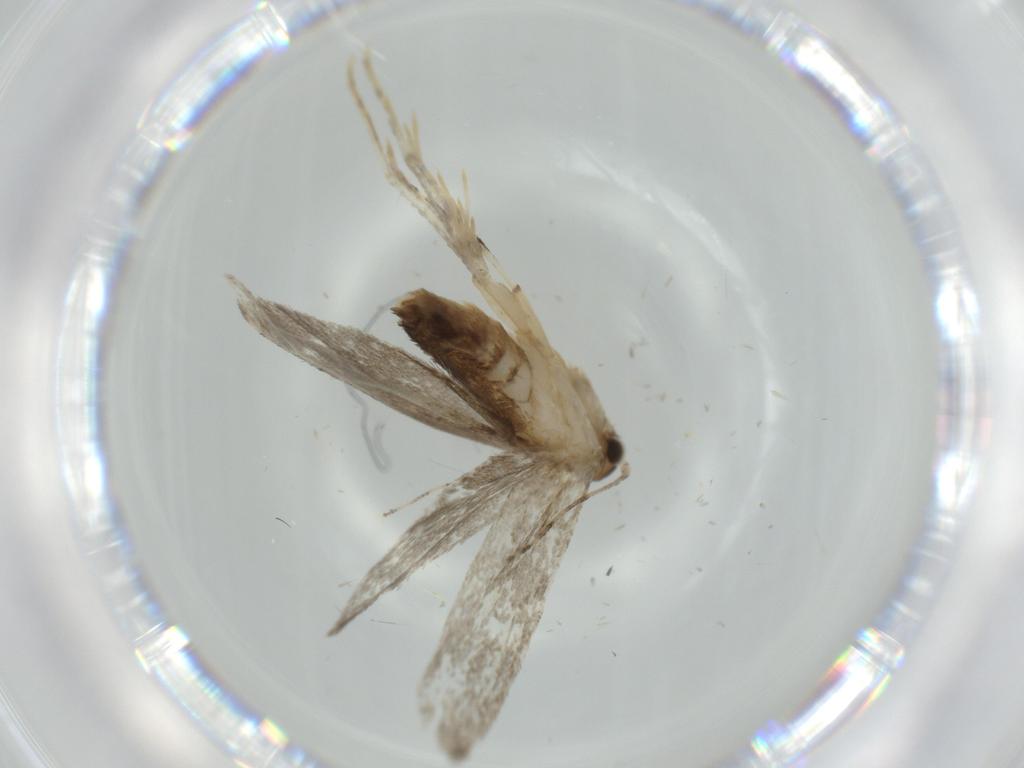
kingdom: Animalia
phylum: Arthropoda
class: Insecta
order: Lepidoptera
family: Tineidae
